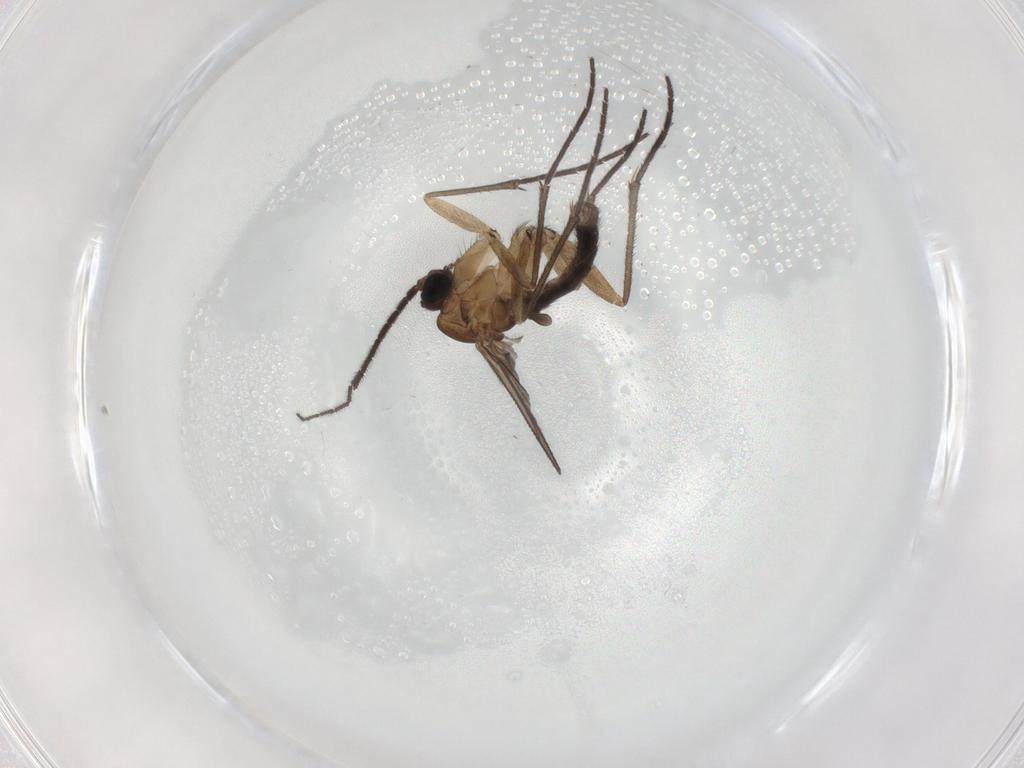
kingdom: Animalia
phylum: Arthropoda
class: Insecta
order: Diptera
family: Sciaridae
